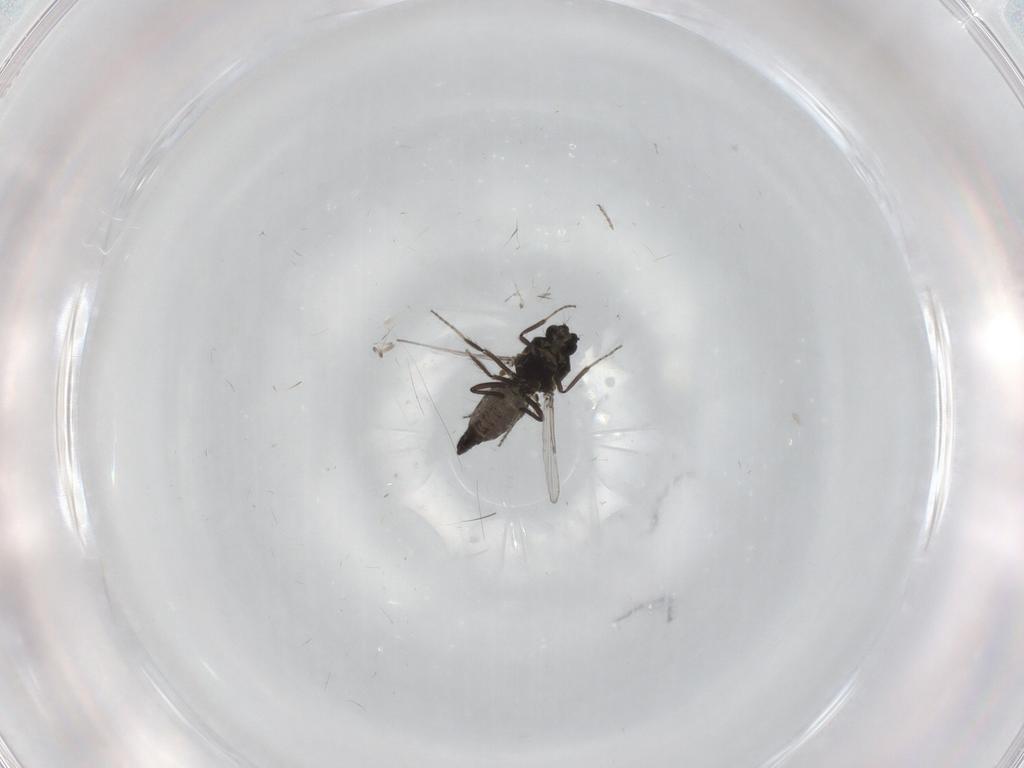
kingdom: Animalia
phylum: Arthropoda
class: Insecta
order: Diptera
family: Ceratopogonidae
